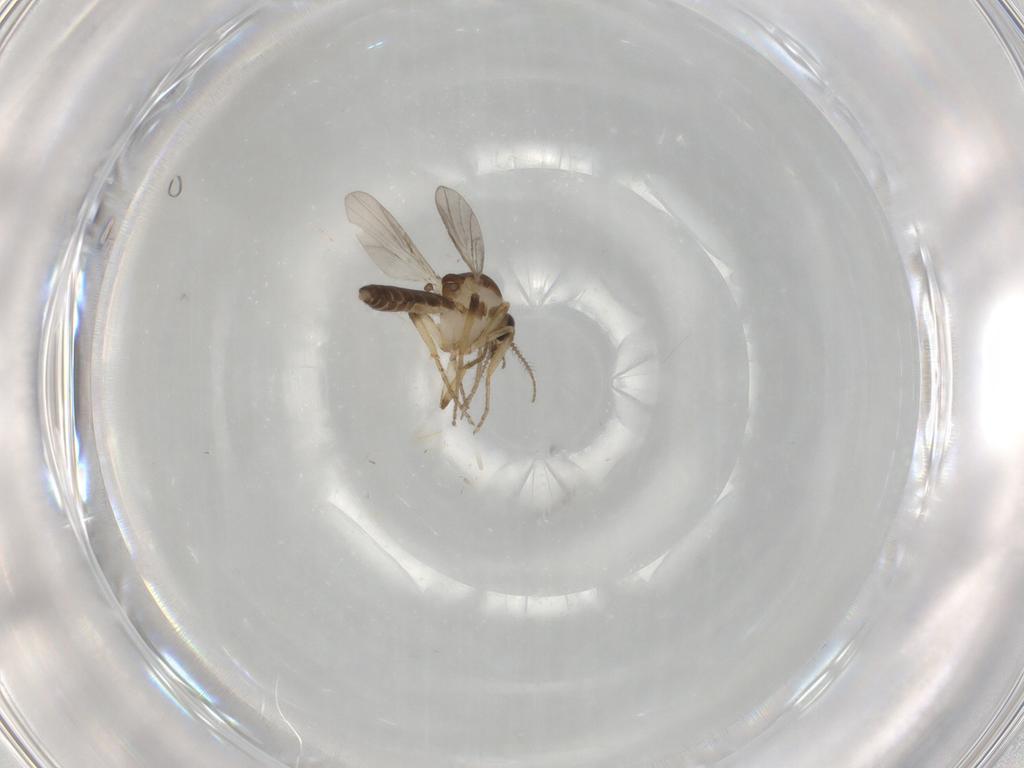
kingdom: Animalia
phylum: Arthropoda
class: Insecta
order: Diptera
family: Ceratopogonidae
